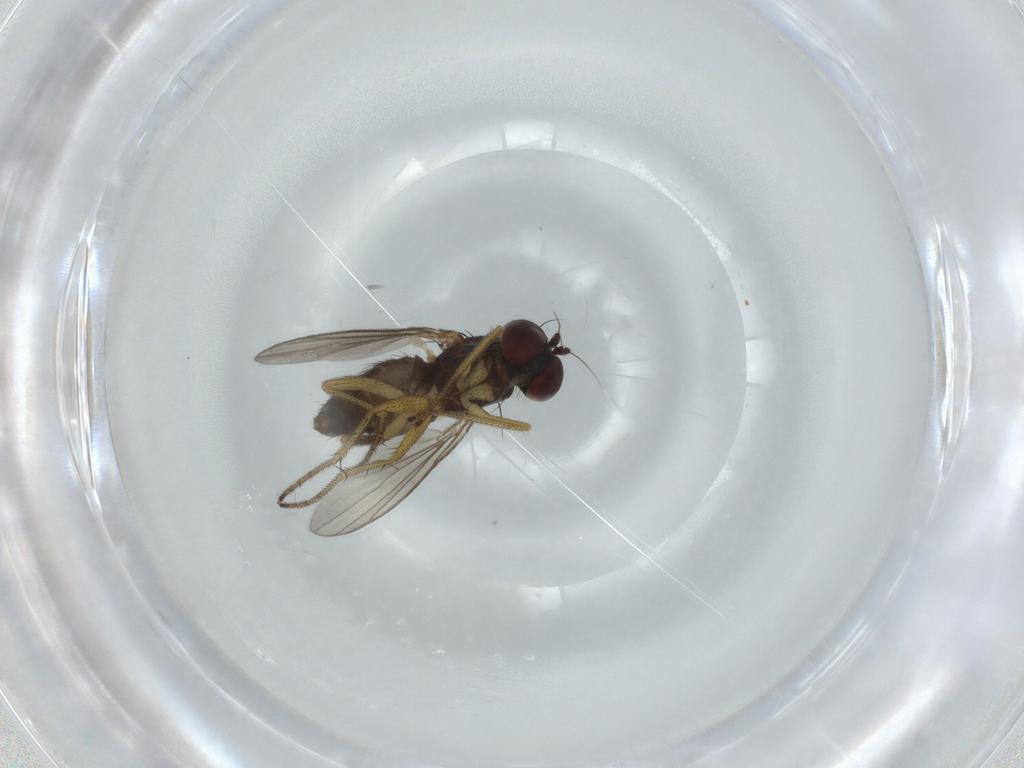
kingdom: Animalia
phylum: Arthropoda
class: Insecta
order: Diptera
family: Dolichopodidae
